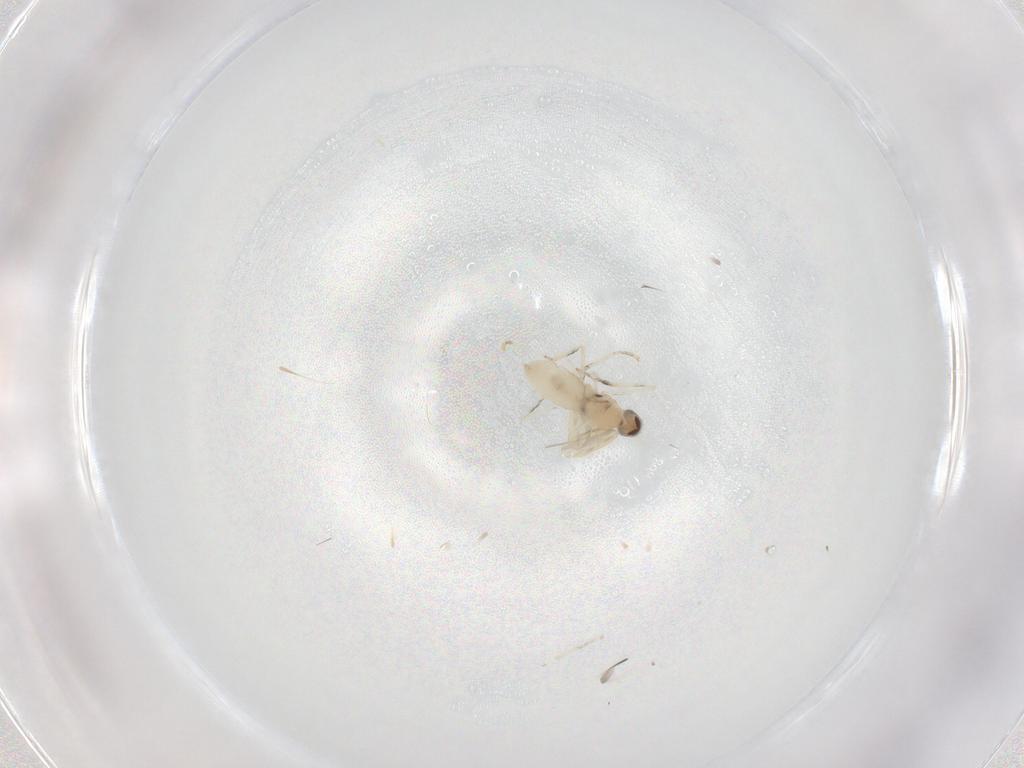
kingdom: Animalia
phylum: Arthropoda
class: Insecta
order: Diptera
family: Cecidomyiidae
